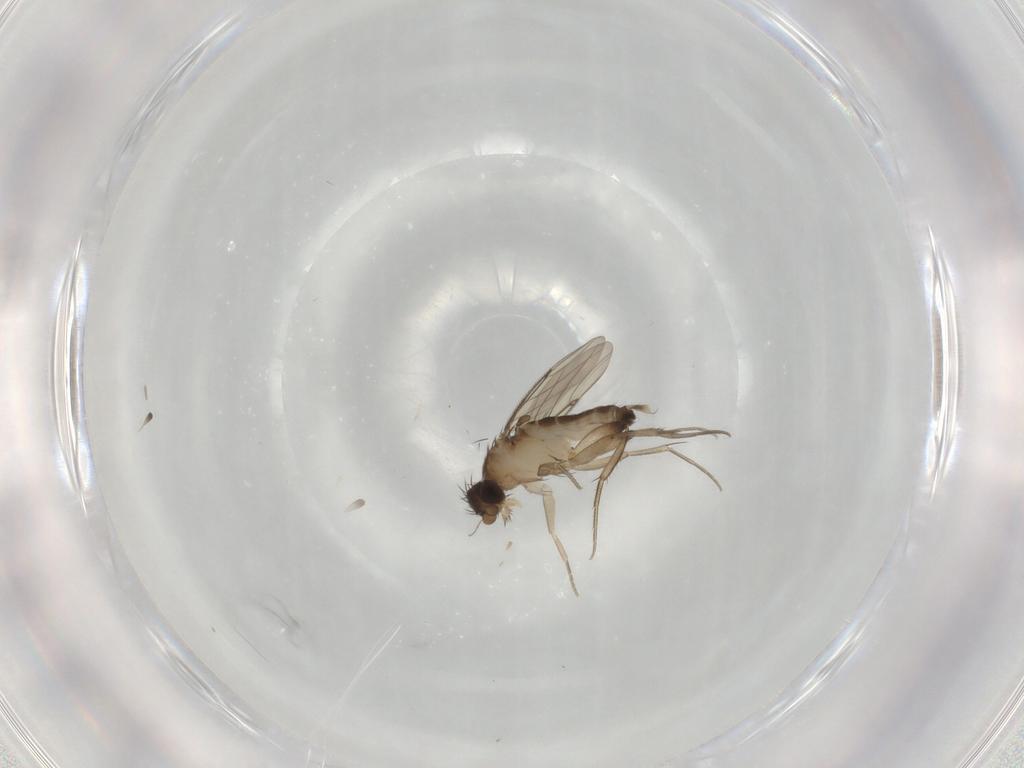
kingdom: Animalia
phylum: Arthropoda
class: Insecta
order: Diptera
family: Phoridae
